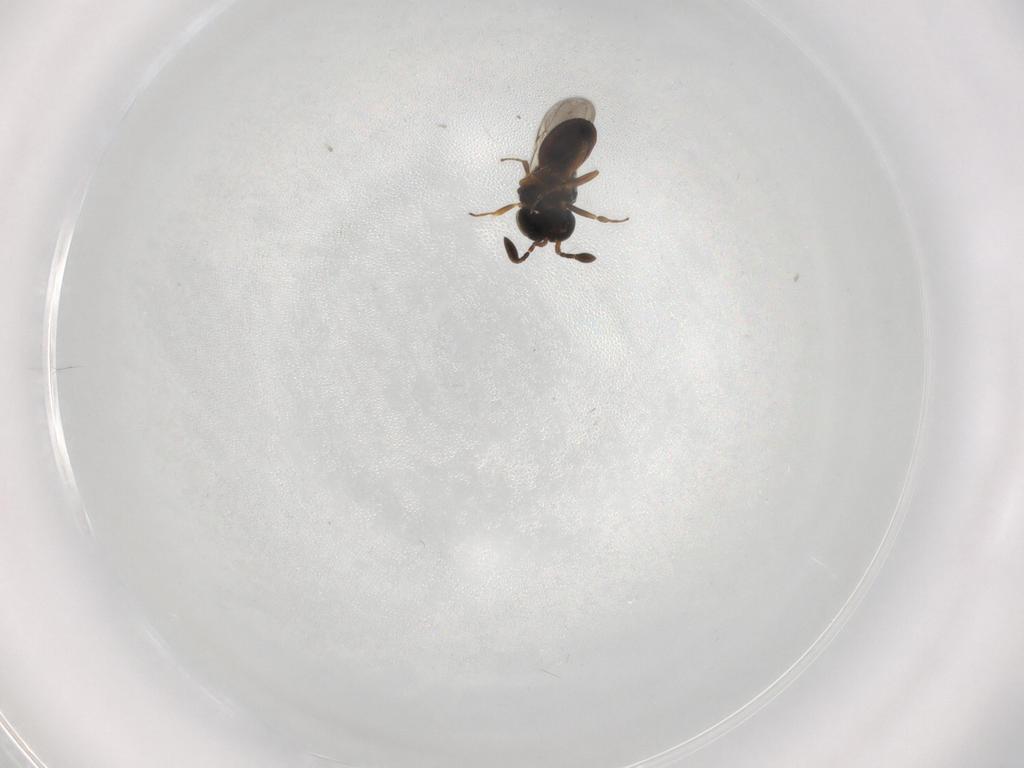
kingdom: Animalia
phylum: Arthropoda
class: Insecta
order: Hymenoptera
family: Scelionidae
